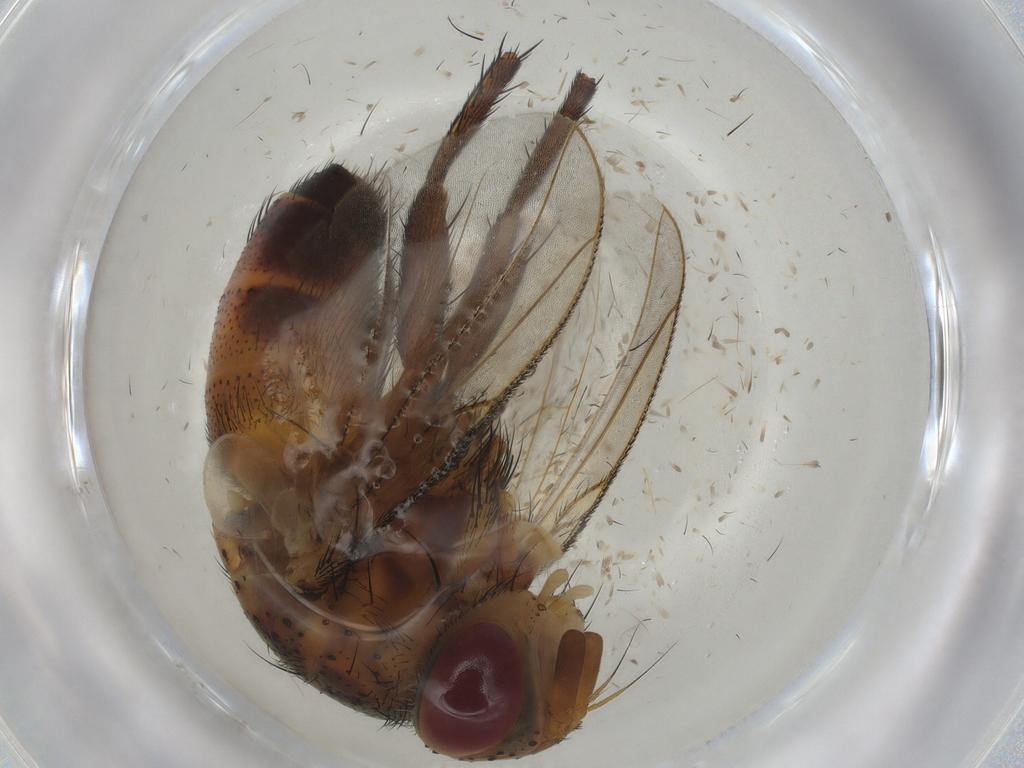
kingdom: Animalia
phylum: Arthropoda
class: Insecta
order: Diptera
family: Tachinidae
